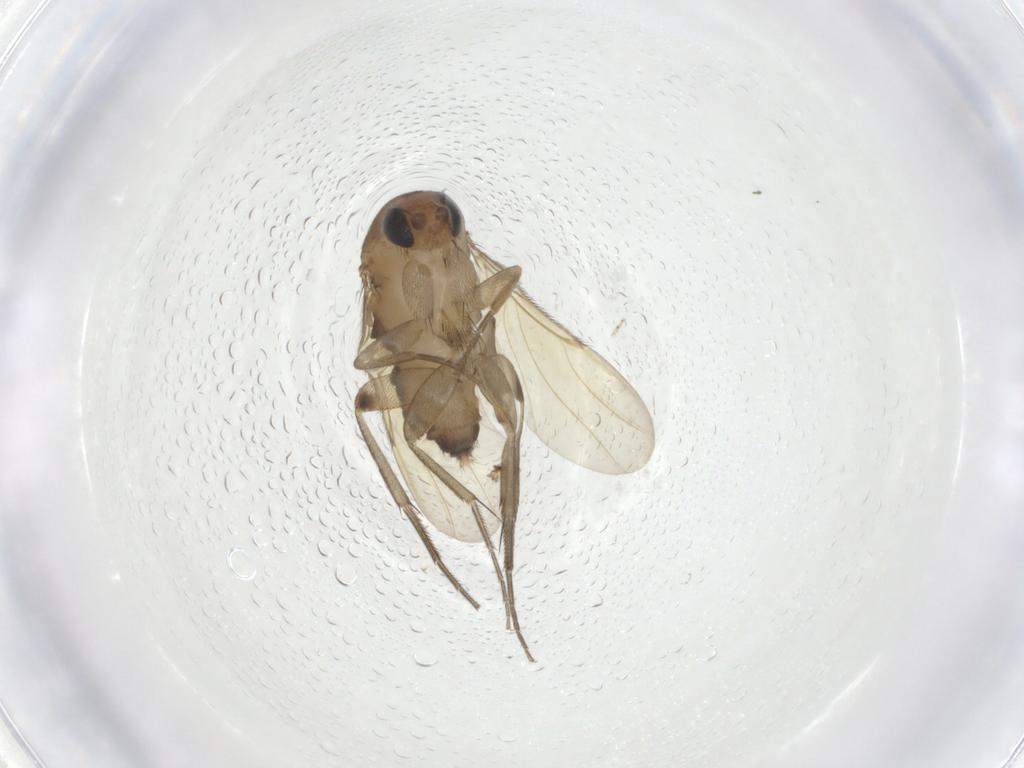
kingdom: Animalia
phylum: Arthropoda
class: Insecta
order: Diptera
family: Phoridae
